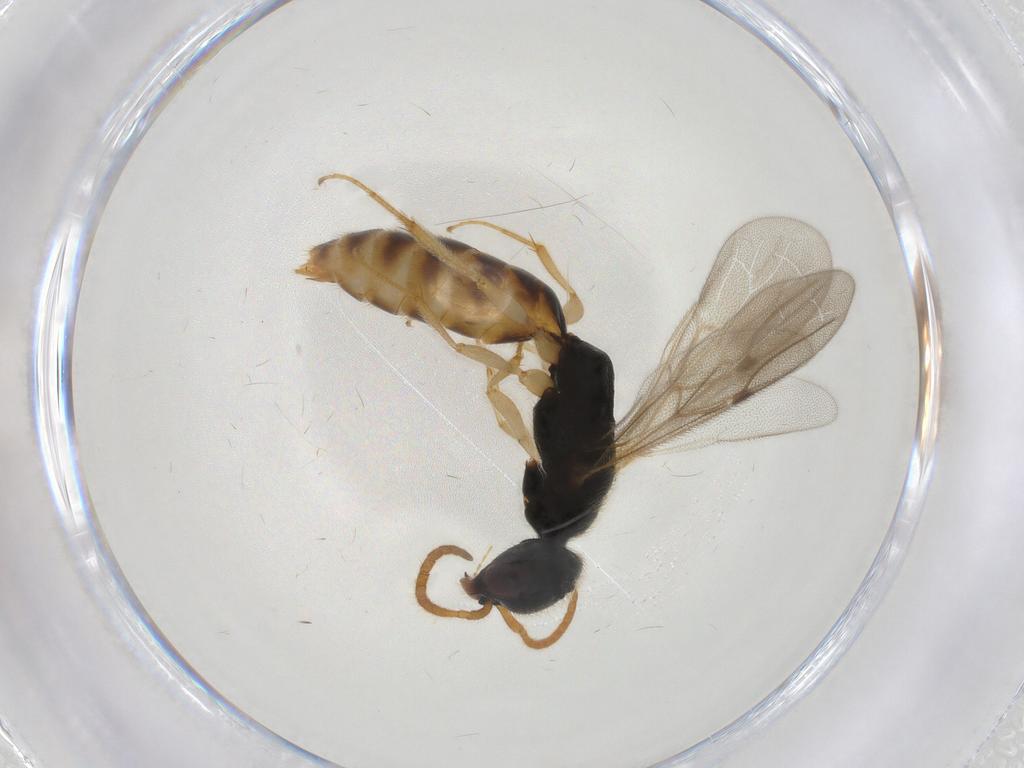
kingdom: Animalia
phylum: Arthropoda
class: Insecta
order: Hymenoptera
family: Bethylidae
